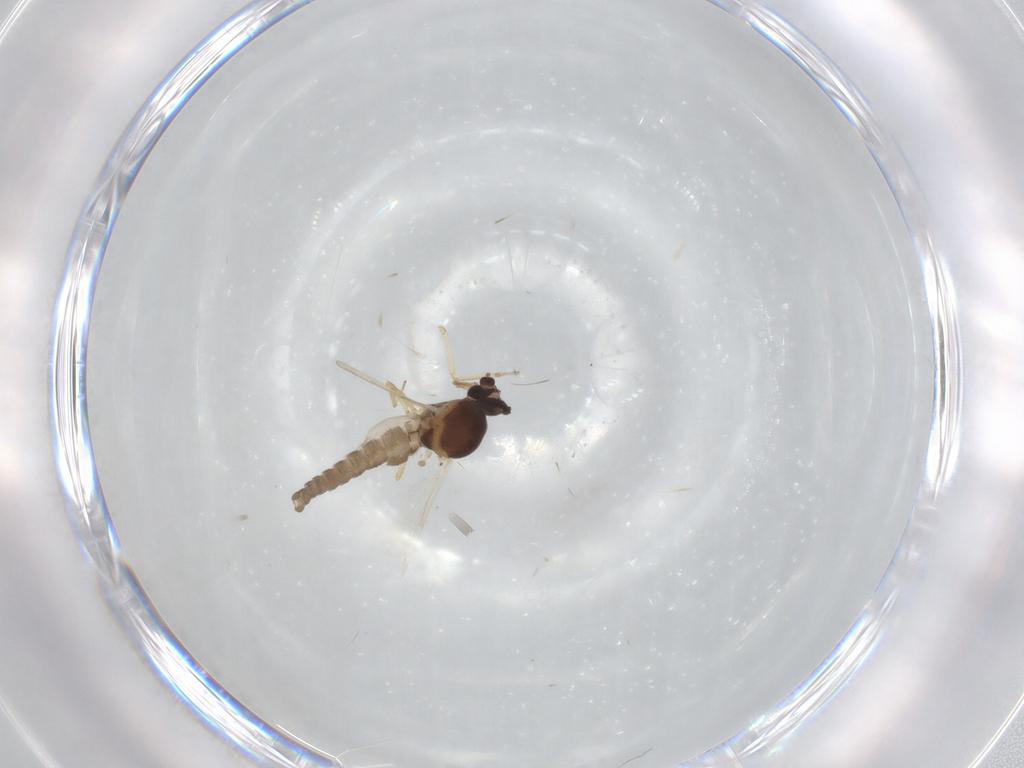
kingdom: Animalia
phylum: Arthropoda
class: Insecta
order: Diptera
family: Ceratopogonidae
